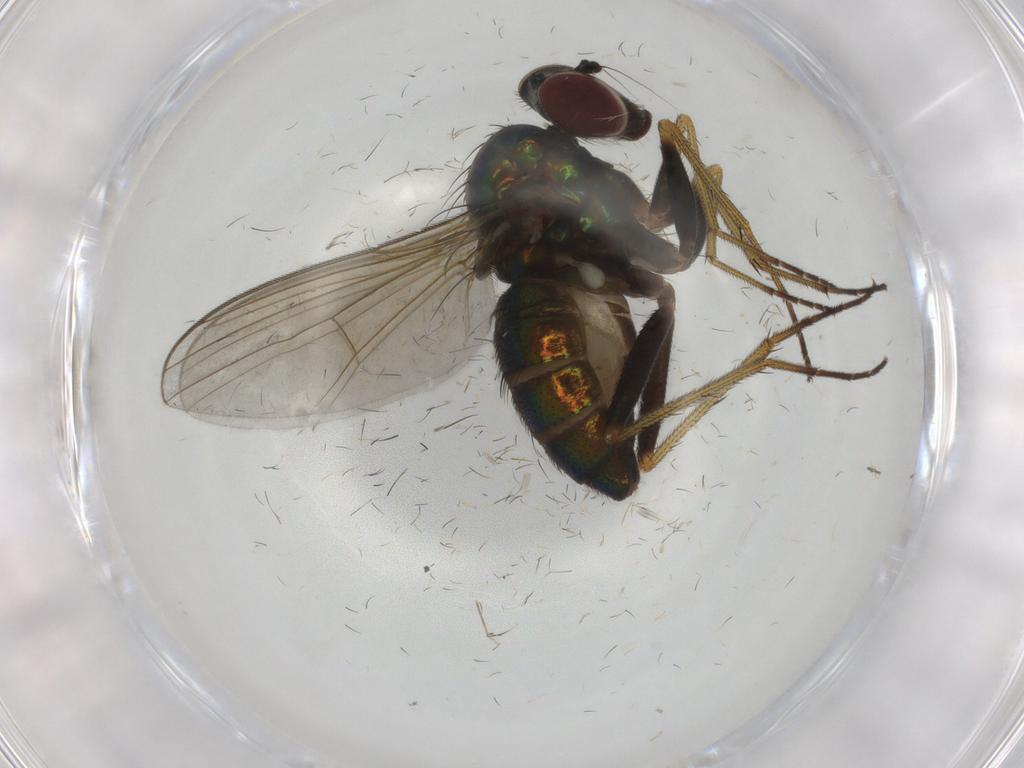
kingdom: Animalia
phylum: Arthropoda
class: Insecta
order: Diptera
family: Dolichopodidae
